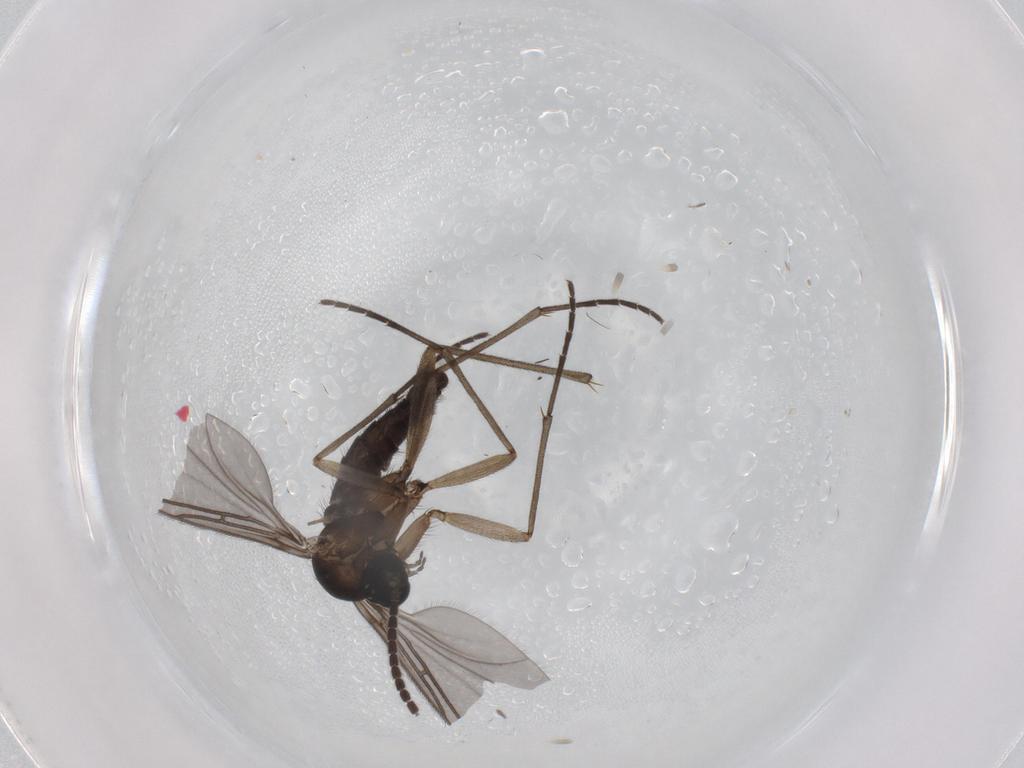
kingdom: Animalia
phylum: Arthropoda
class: Insecta
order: Diptera
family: Sciaridae
